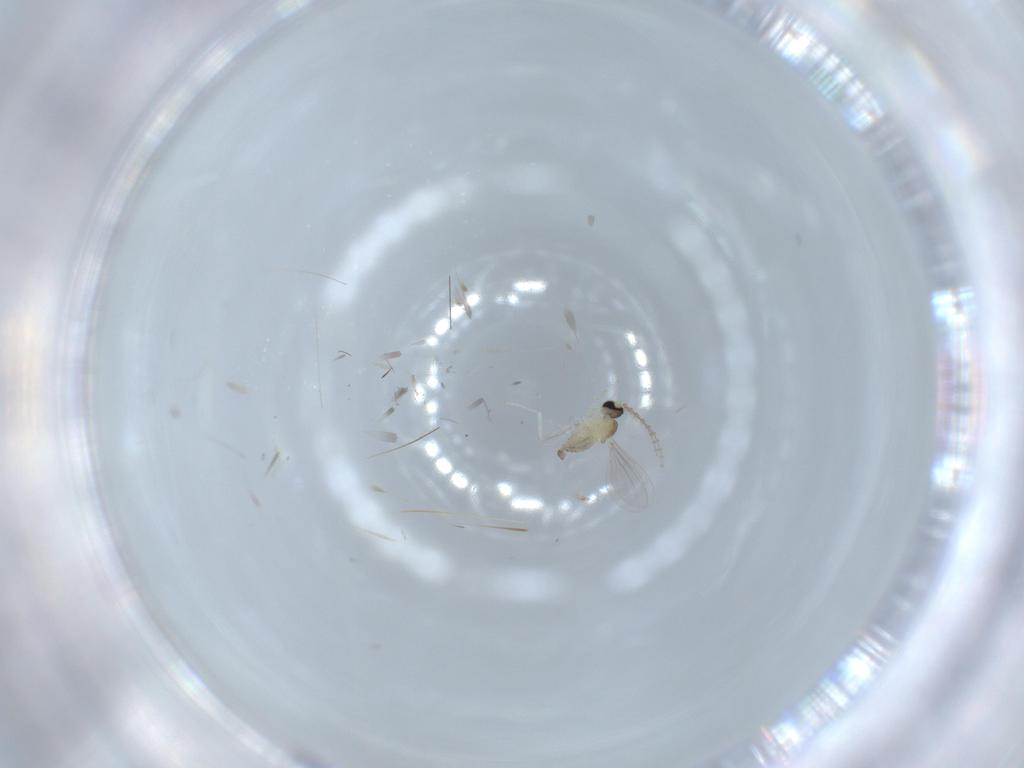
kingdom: Animalia
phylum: Arthropoda
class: Insecta
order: Diptera
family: Cecidomyiidae
